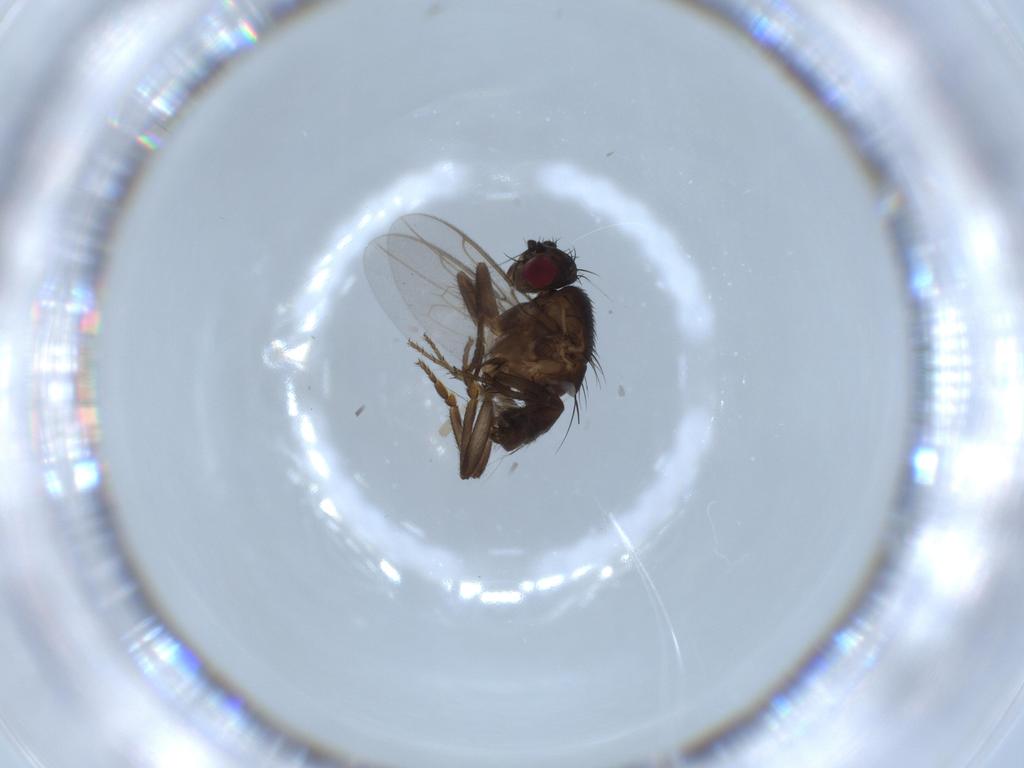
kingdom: Animalia
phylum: Arthropoda
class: Insecta
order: Diptera
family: Sphaeroceridae
